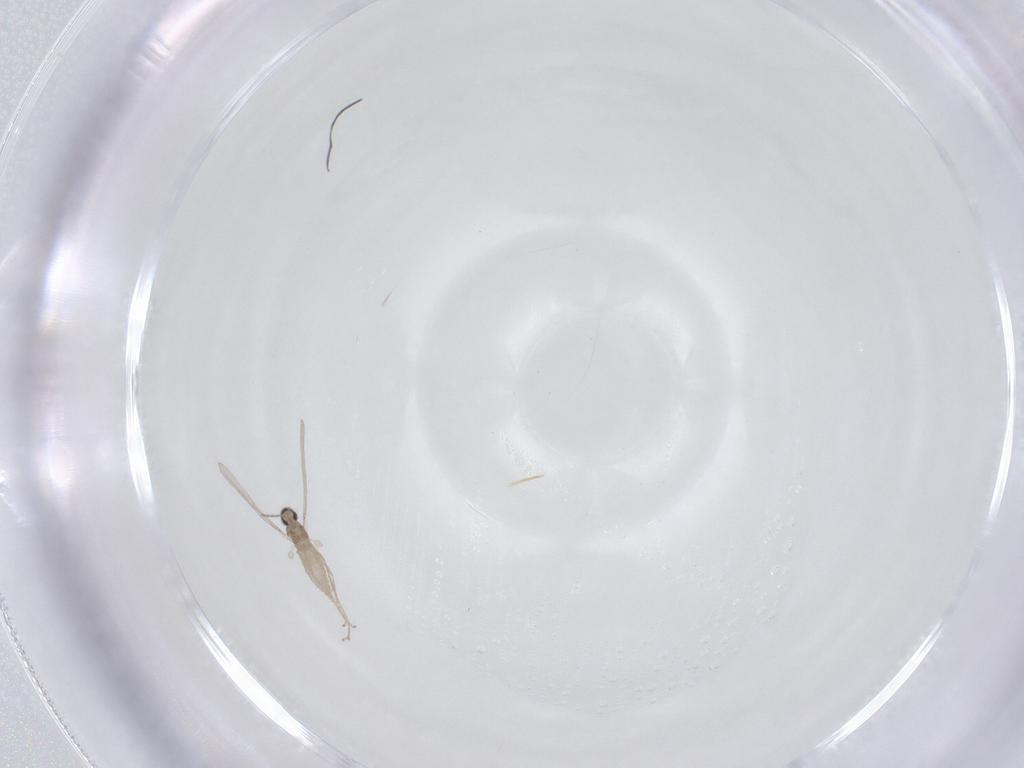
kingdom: Animalia
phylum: Arthropoda
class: Insecta
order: Diptera
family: Cecidomyiidae
